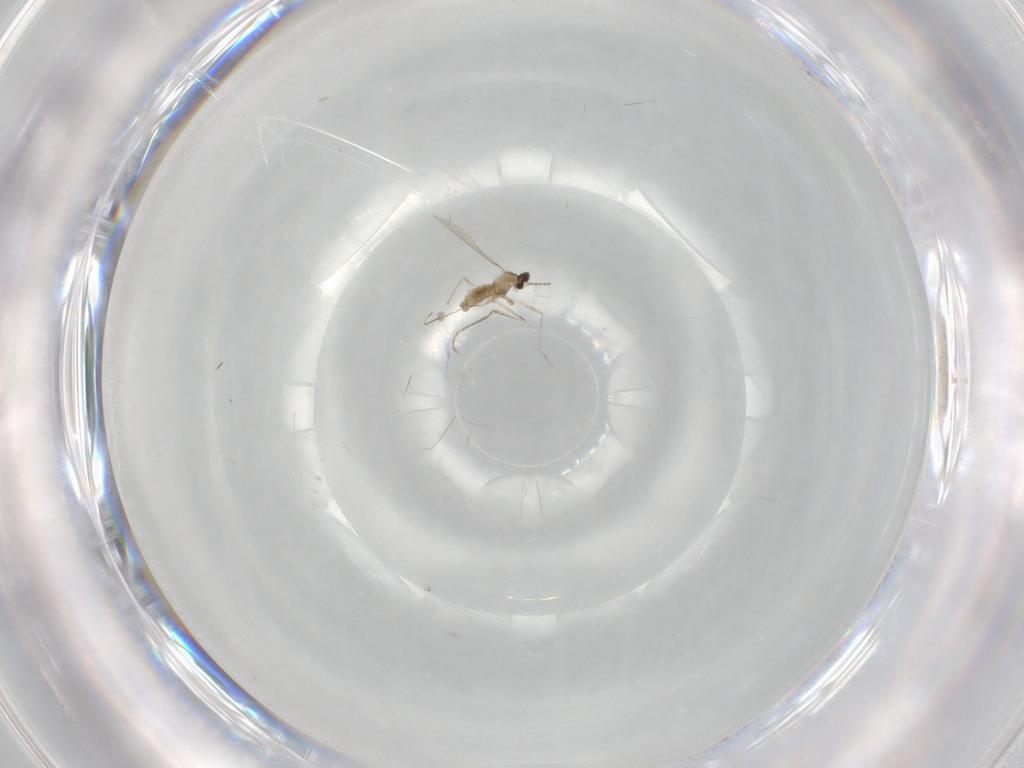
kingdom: Animalia
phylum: Arthropoda
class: Insecta
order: Diptera
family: Cecidomyiidae
